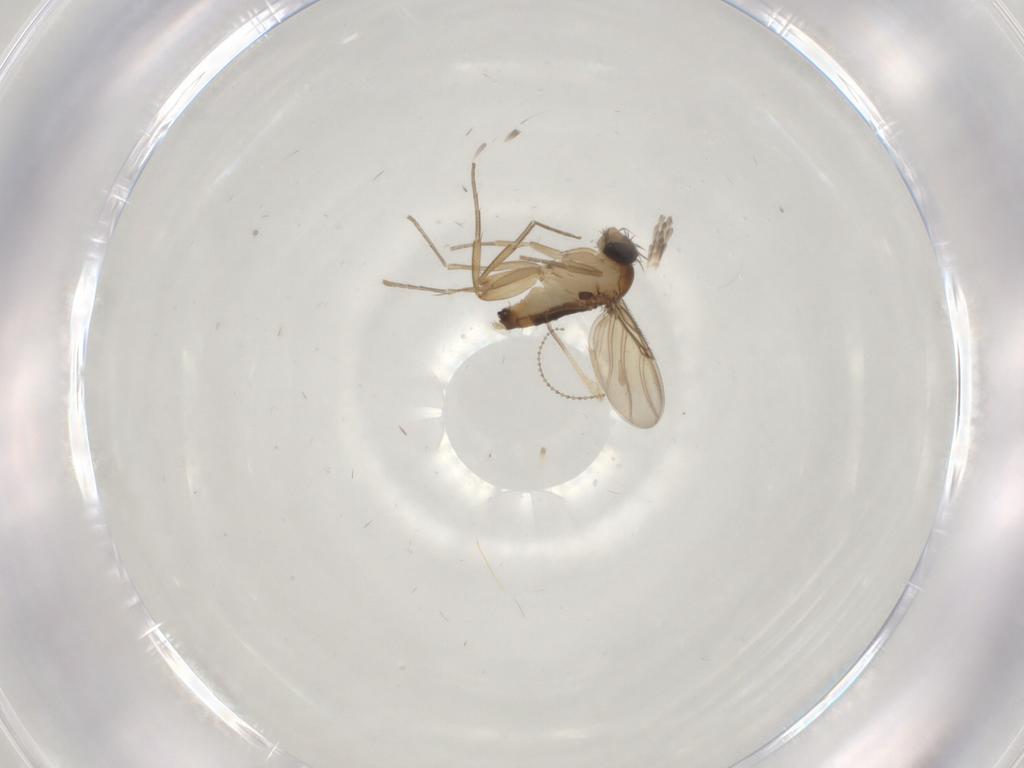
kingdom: Animalia
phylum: Arthropoda
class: Insecta
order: Diptera
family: Phoridae
